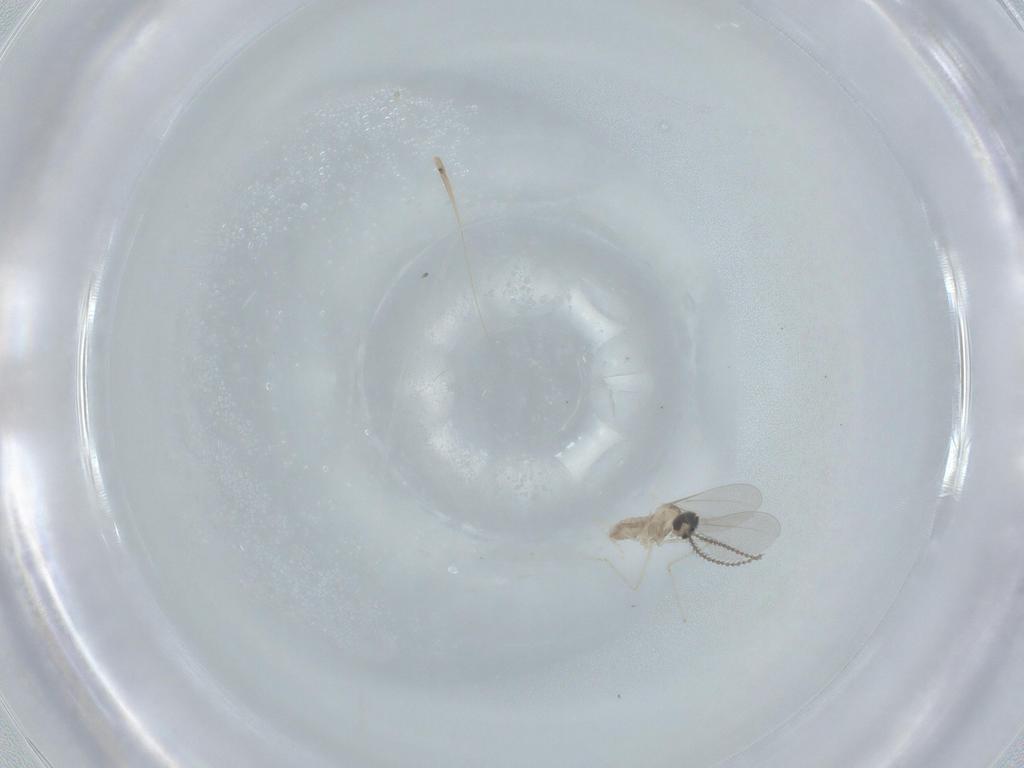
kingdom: Animalia
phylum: Arthropoda
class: Insecta
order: Diptera
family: Cecidomyiidae
